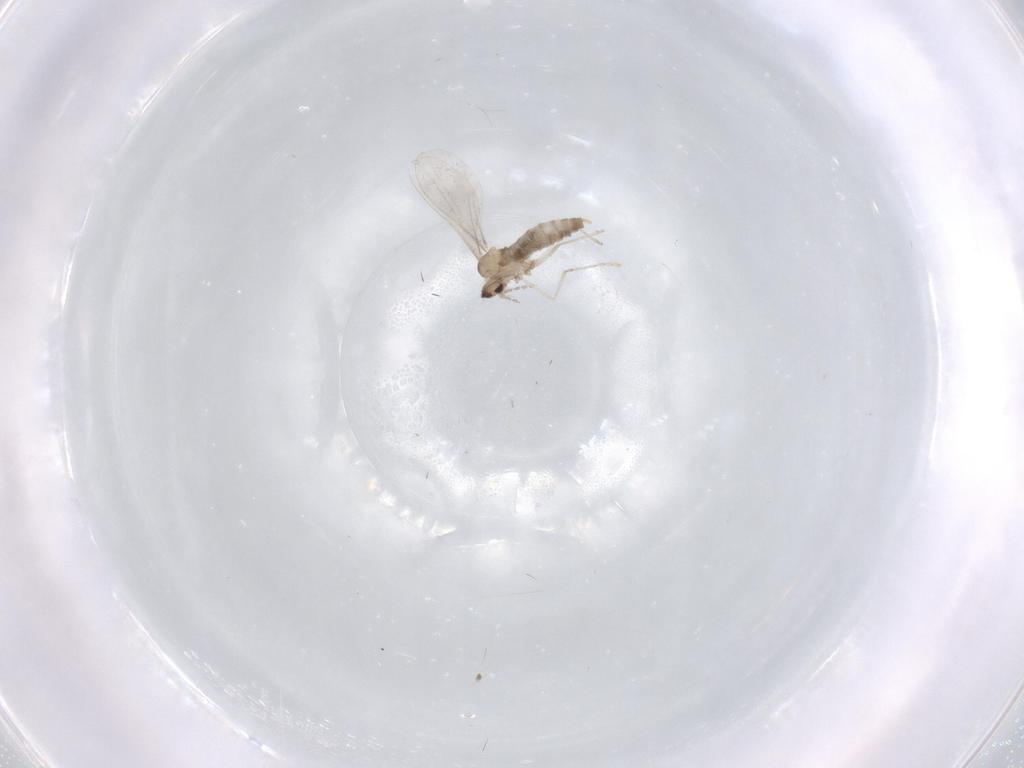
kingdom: Animalia
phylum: Arthropoda
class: Insecta
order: Diptera
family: Cecidomyiidae
